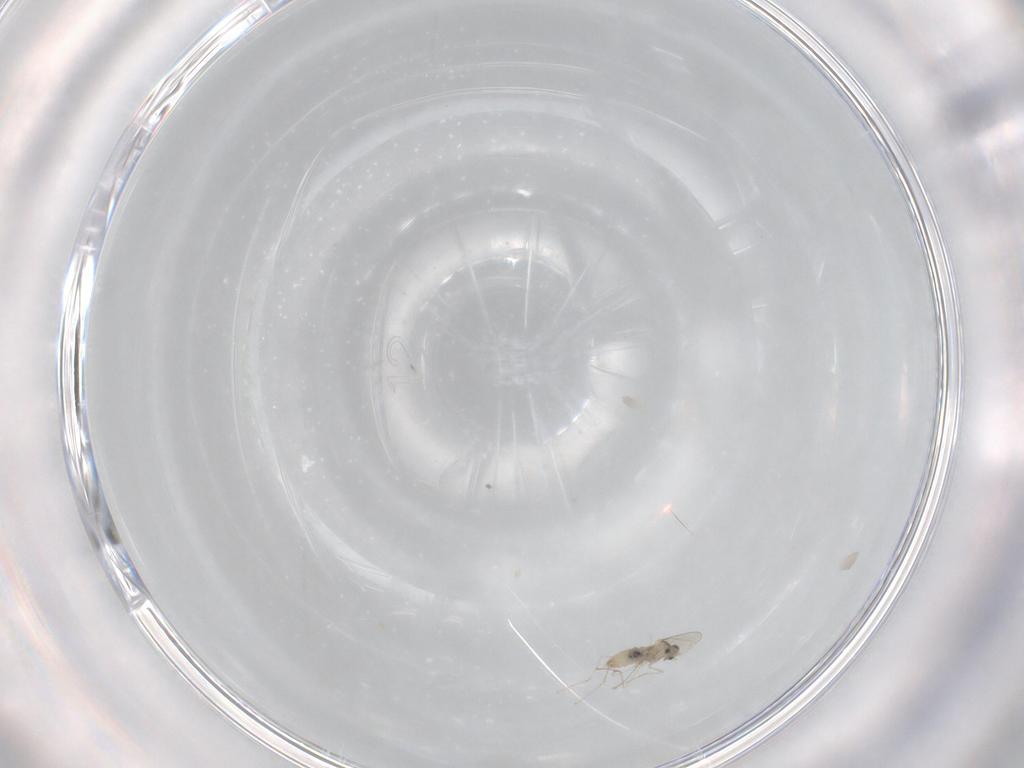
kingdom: Animalia
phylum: Arthropoda
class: Insecta
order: Diptera
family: Cecidomyiidae
